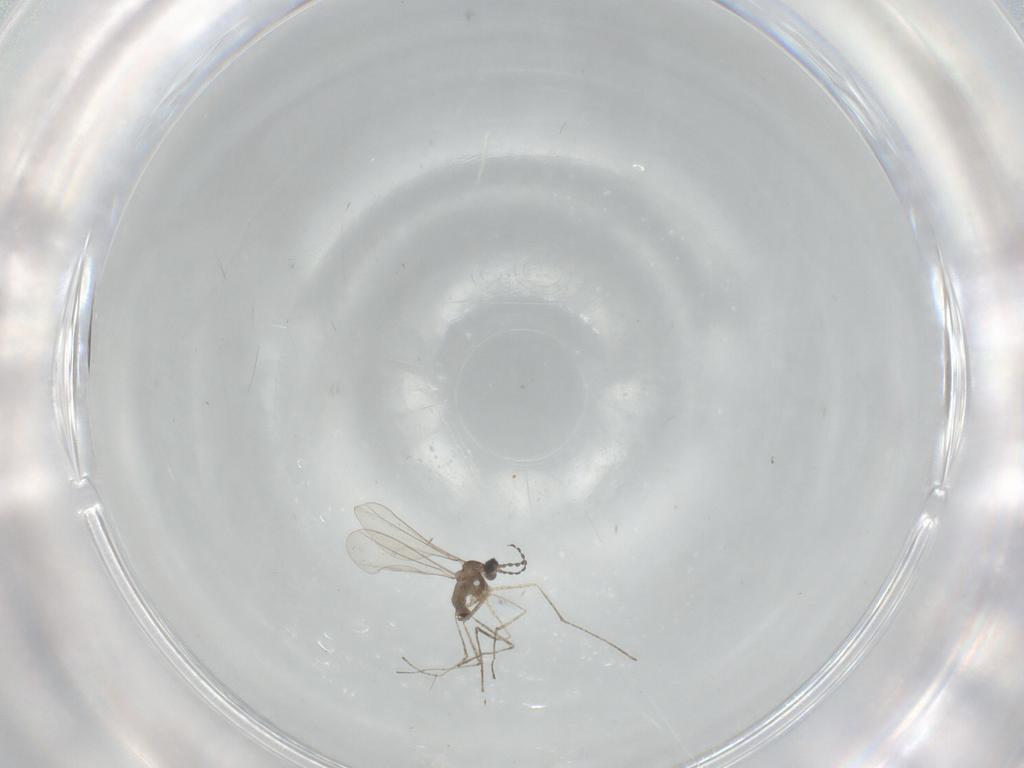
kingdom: Animalia
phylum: Arthropoda
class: Insecta
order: Diptera
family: Cecidomyiidae
